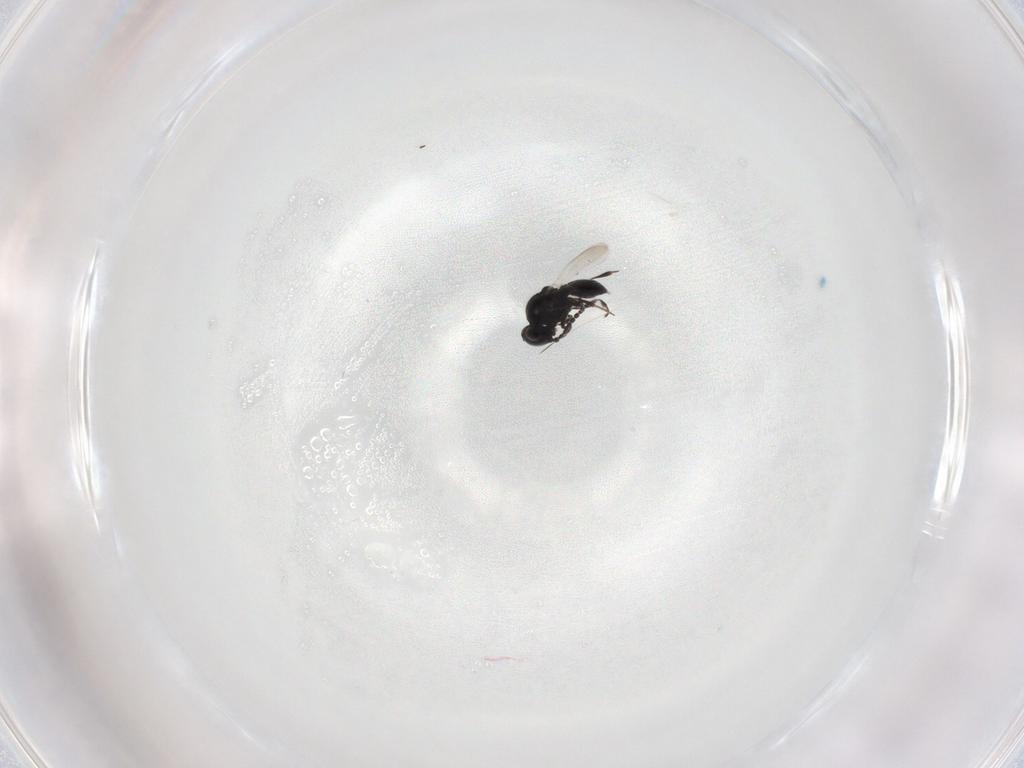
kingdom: Animalia
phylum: Arthropoda
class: Insecta
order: Hymenoptera
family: Platygastridae
